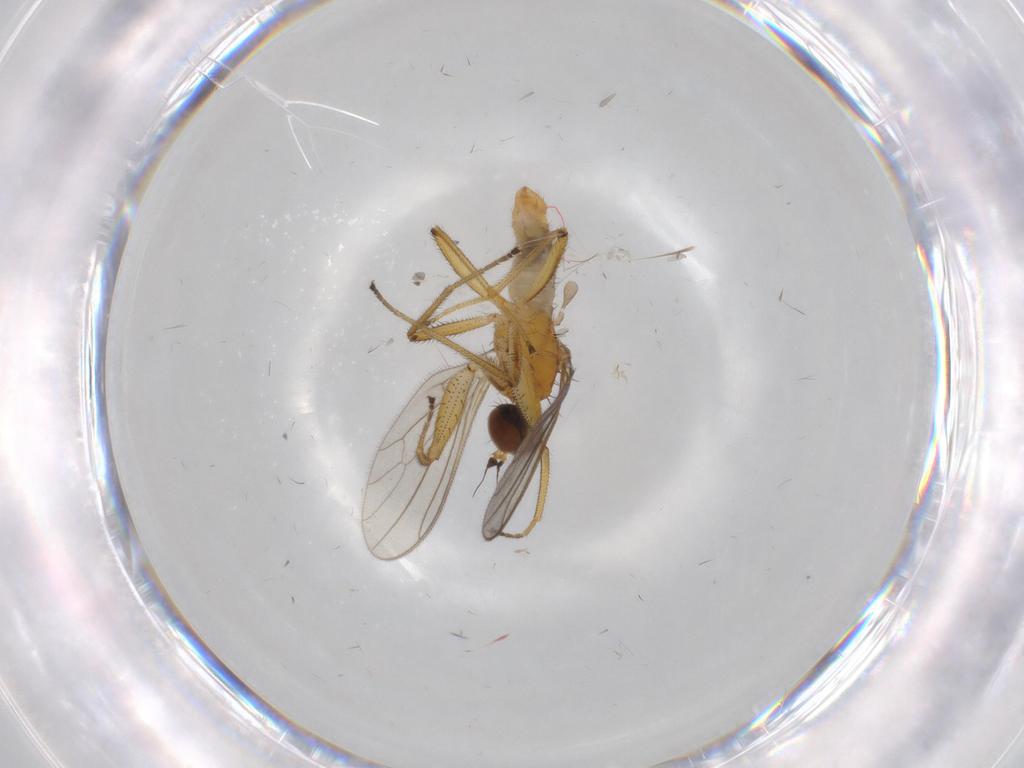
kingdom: Animalia
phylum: Arthropoda
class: Insecta
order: Diptera
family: Empididae
